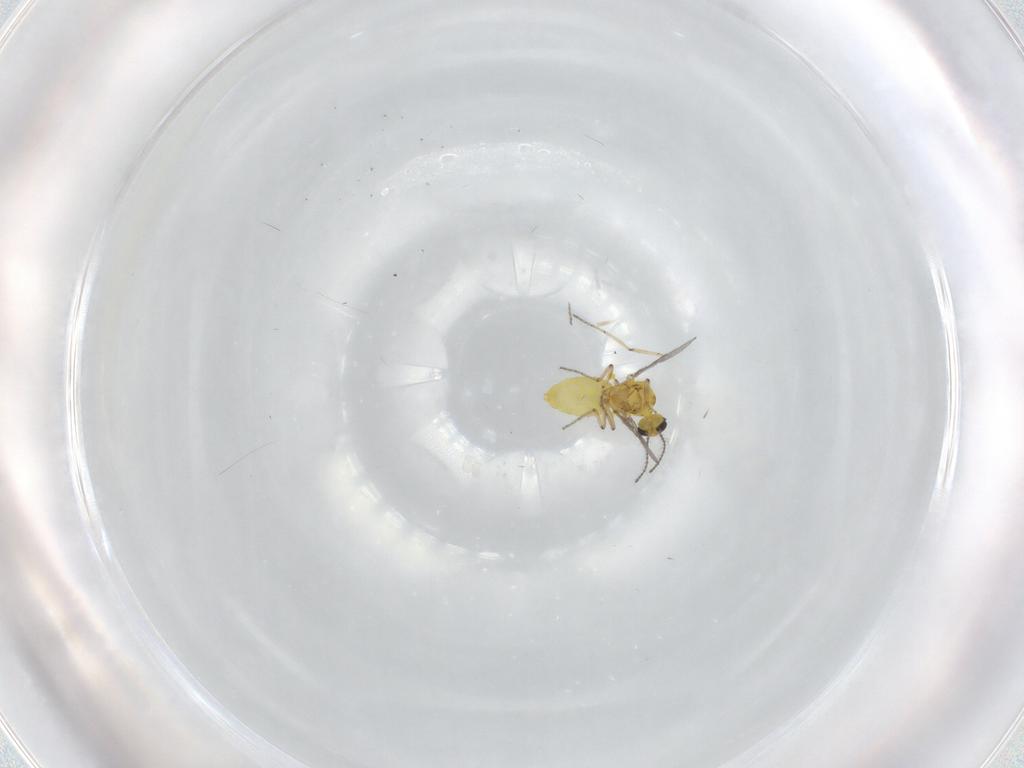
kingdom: Animalia
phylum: Arthropoda
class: Insecta
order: Diptera
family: Ceratopogonidae
